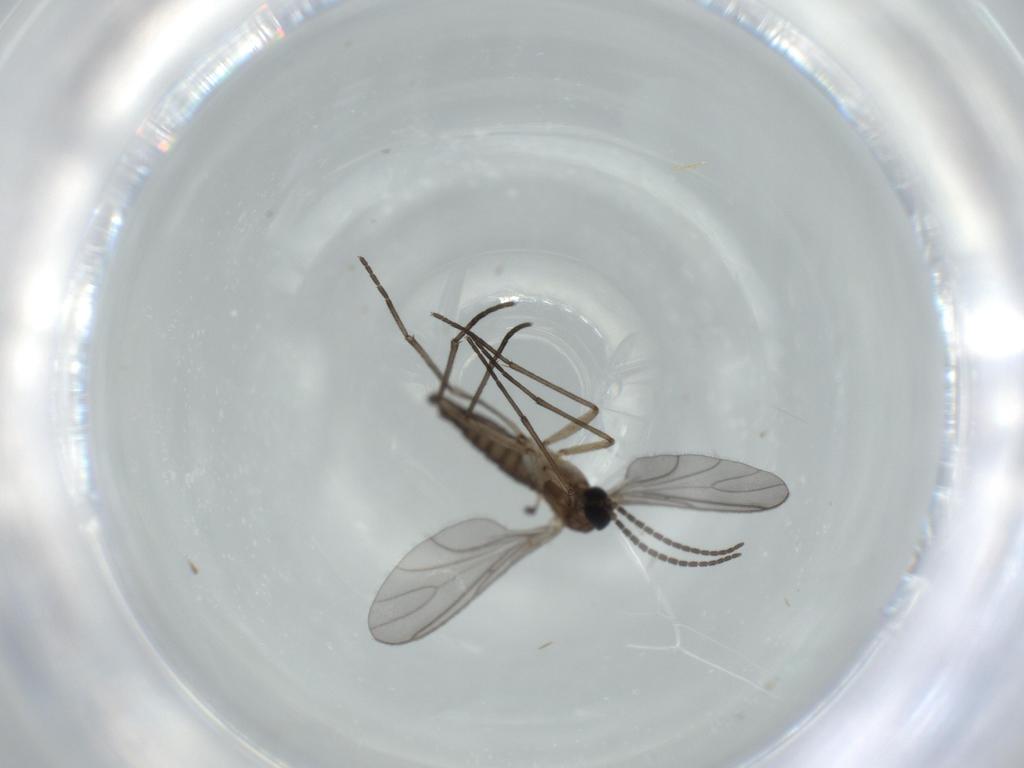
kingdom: Animalia
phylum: Arthropoda
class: Insecta
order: Diptera
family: Sciaridae
